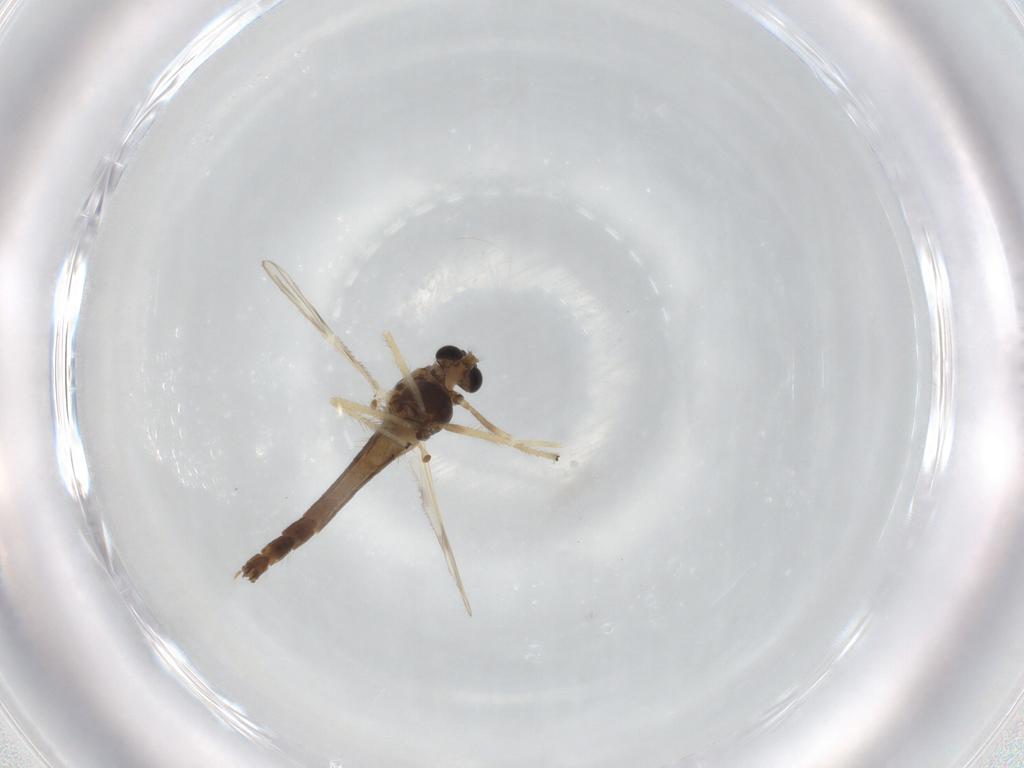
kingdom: Animalia
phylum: Arthropoda
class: Insecta
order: Diptera
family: Chironomidae
